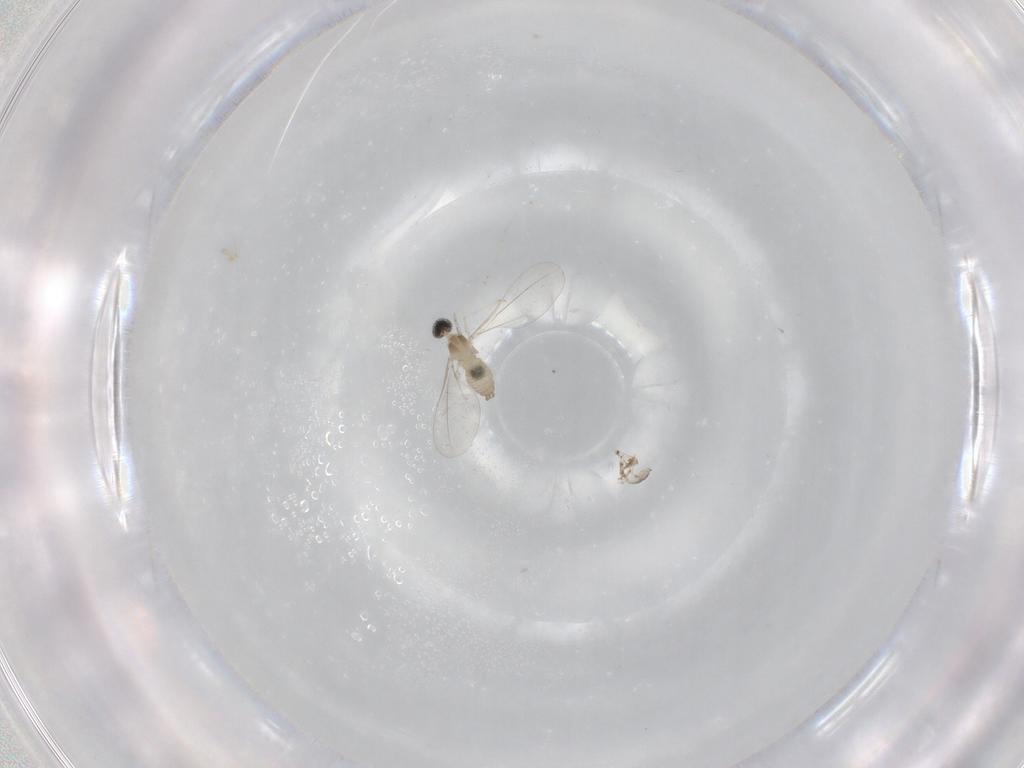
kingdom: Animalia
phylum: Arthropoda
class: Insecta
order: Diptera
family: Cecidomyiidae
